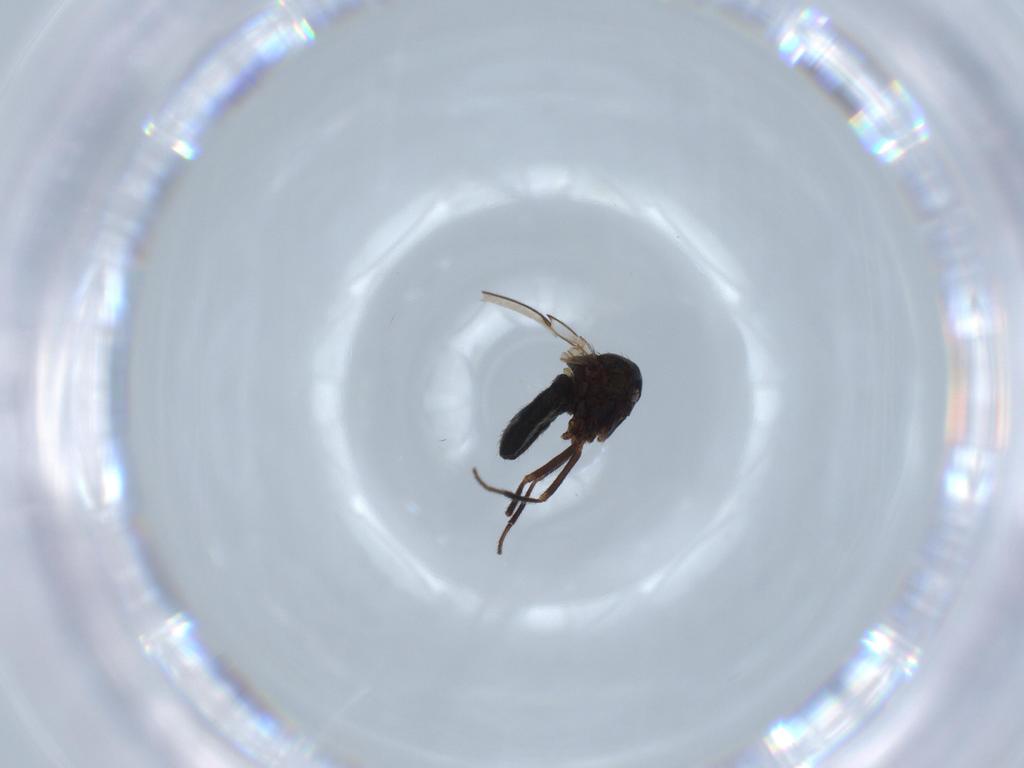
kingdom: Animalia
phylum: Arthropoda
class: Insecta
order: Diptera
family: Ephydridae
